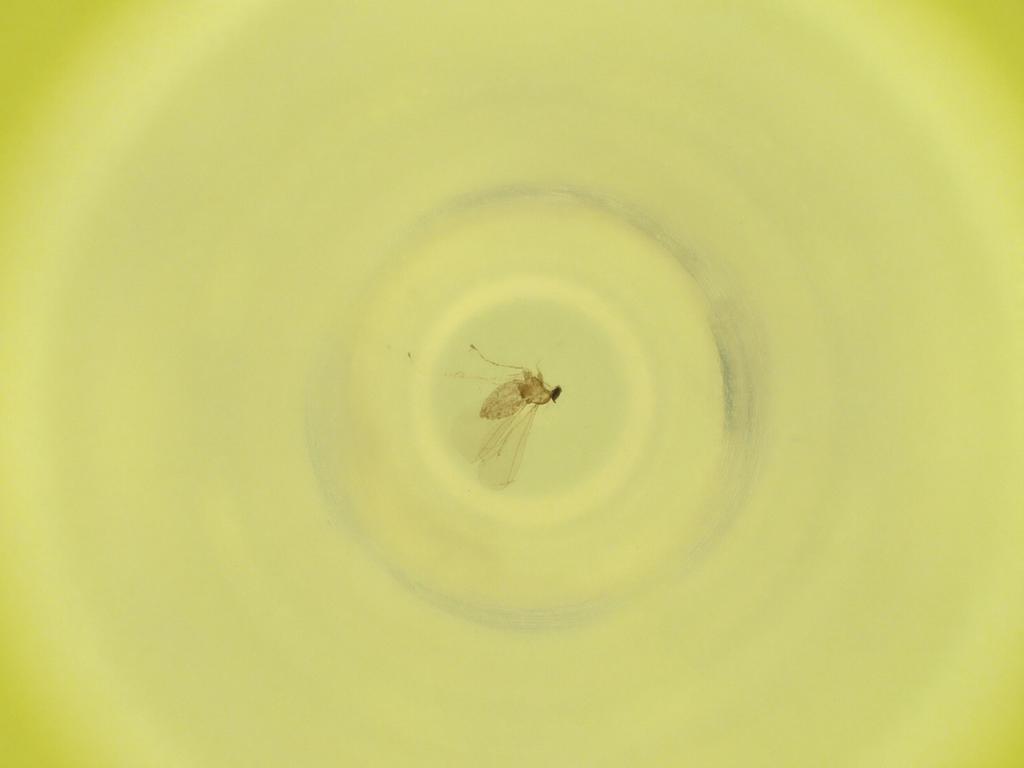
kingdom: Animalia
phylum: Arthropoda
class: Insecta
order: Diptera
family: Cecidomyiidae
